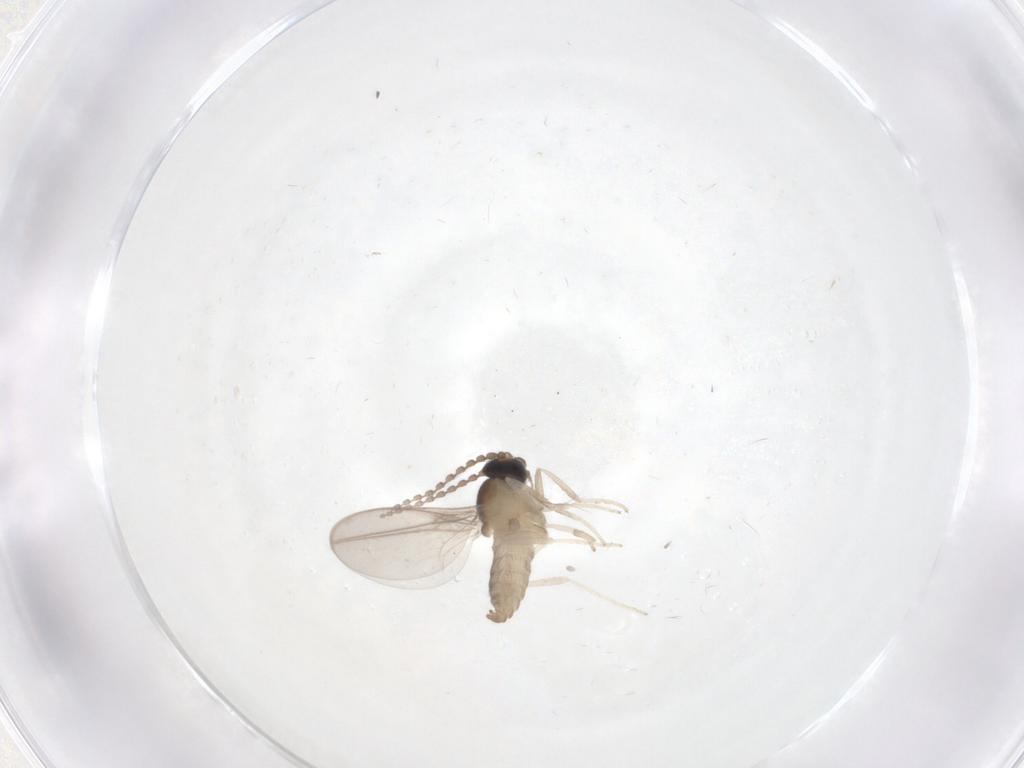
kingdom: Animalia
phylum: Arthropoda
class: Insecta
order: Diptera
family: Cecidomyiidae
